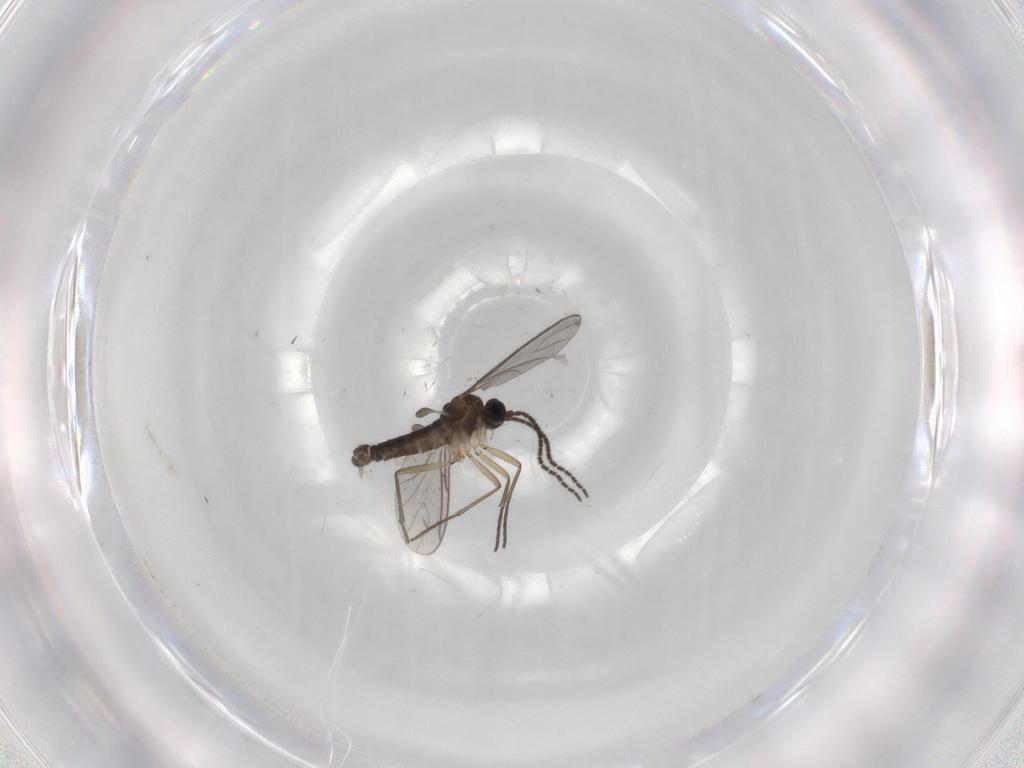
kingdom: Animalia
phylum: Arthropoda
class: Insecta
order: Diptera
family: Sciaridae
